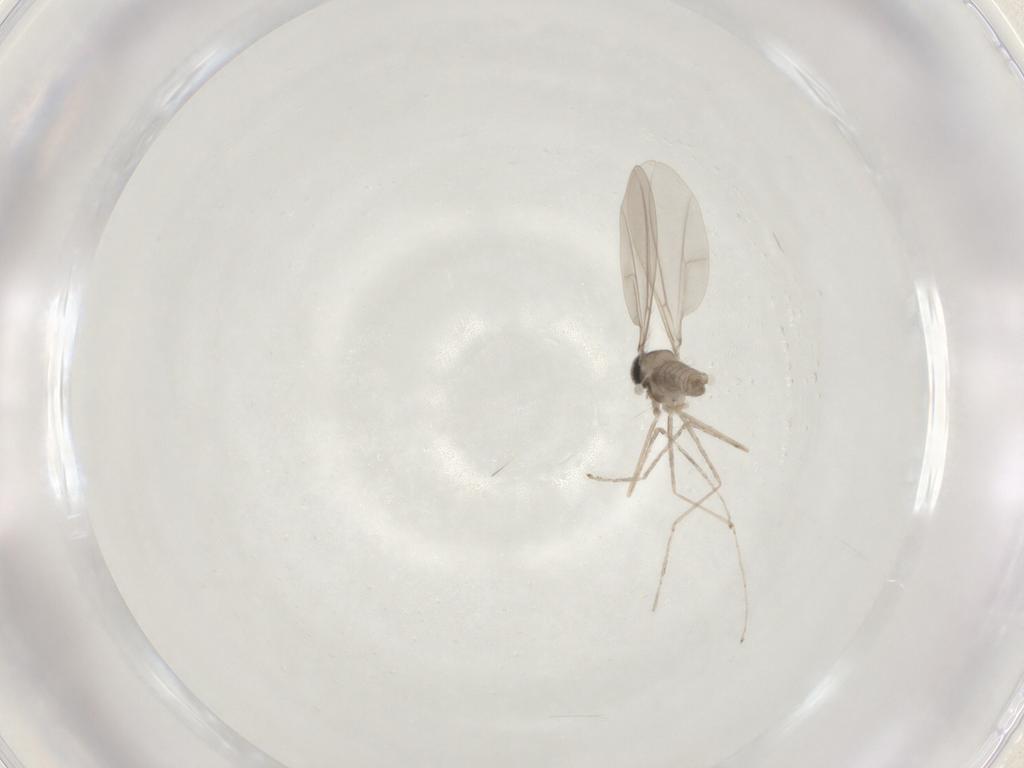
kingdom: Animalia
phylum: Arthropoda
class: Insecta
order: Diptera
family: Cecidomyiidae
